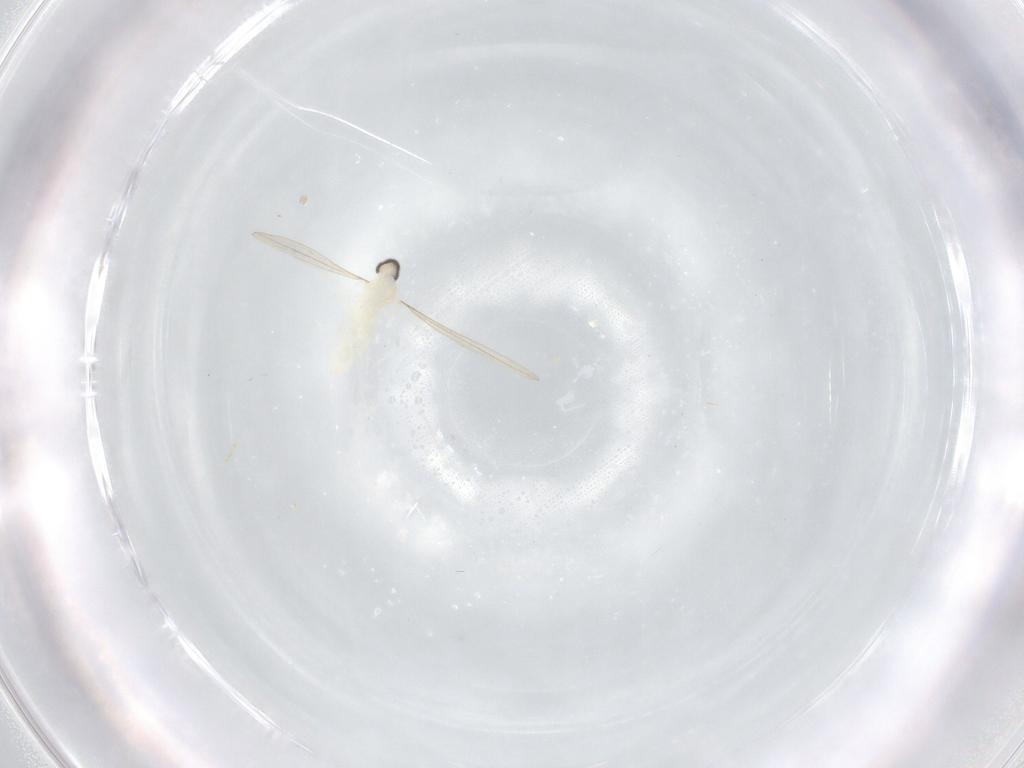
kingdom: Animalia
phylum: Arthropoda
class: Insecta
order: Diptera
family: Cecidomyiidae
